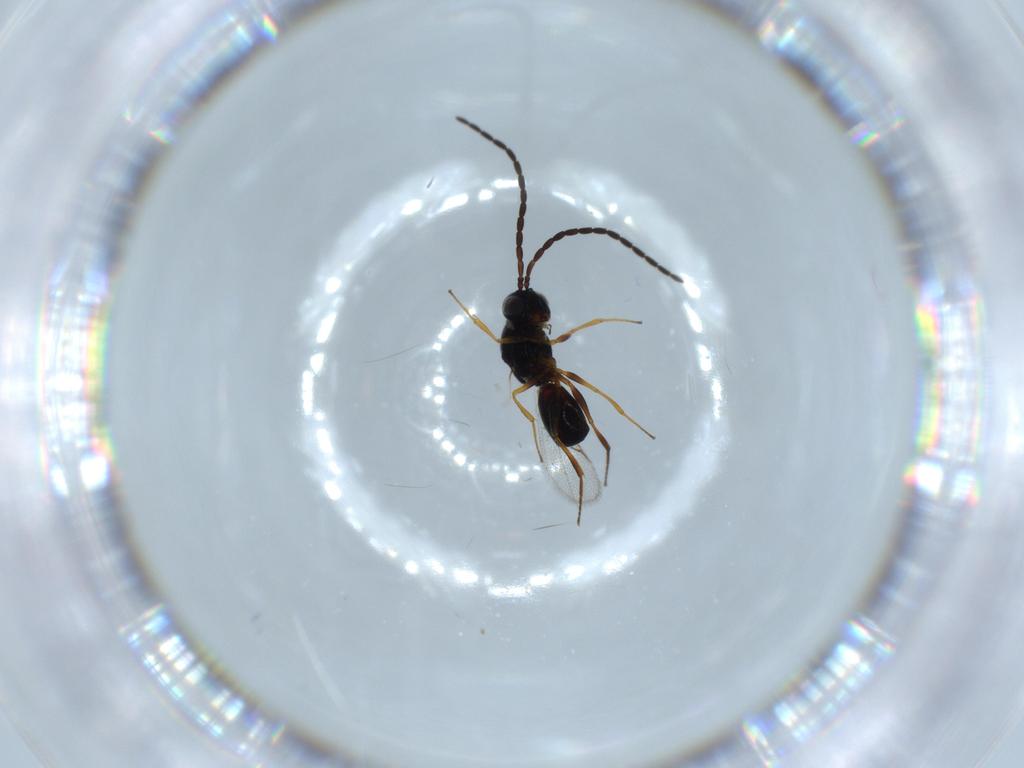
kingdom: Animalia
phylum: Arthropoda
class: Insecta
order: Hymenoptera
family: Figitidae
